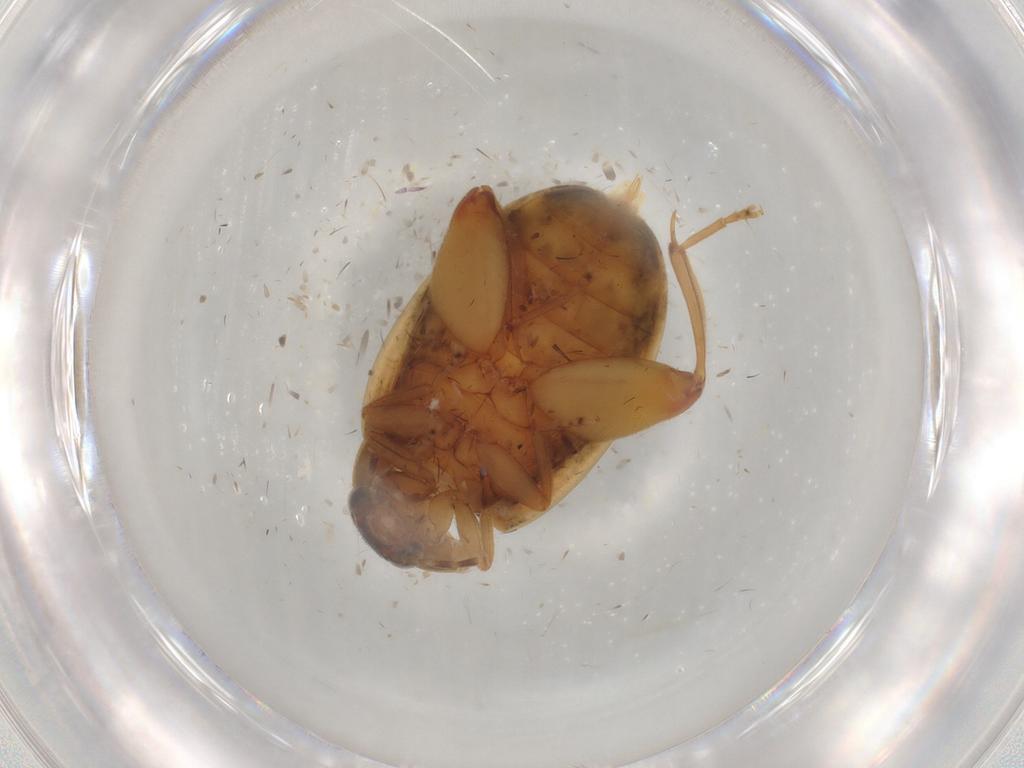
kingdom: Animalia
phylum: Arthropoda
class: Insecta
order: Coleoptera
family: Scirtidae
